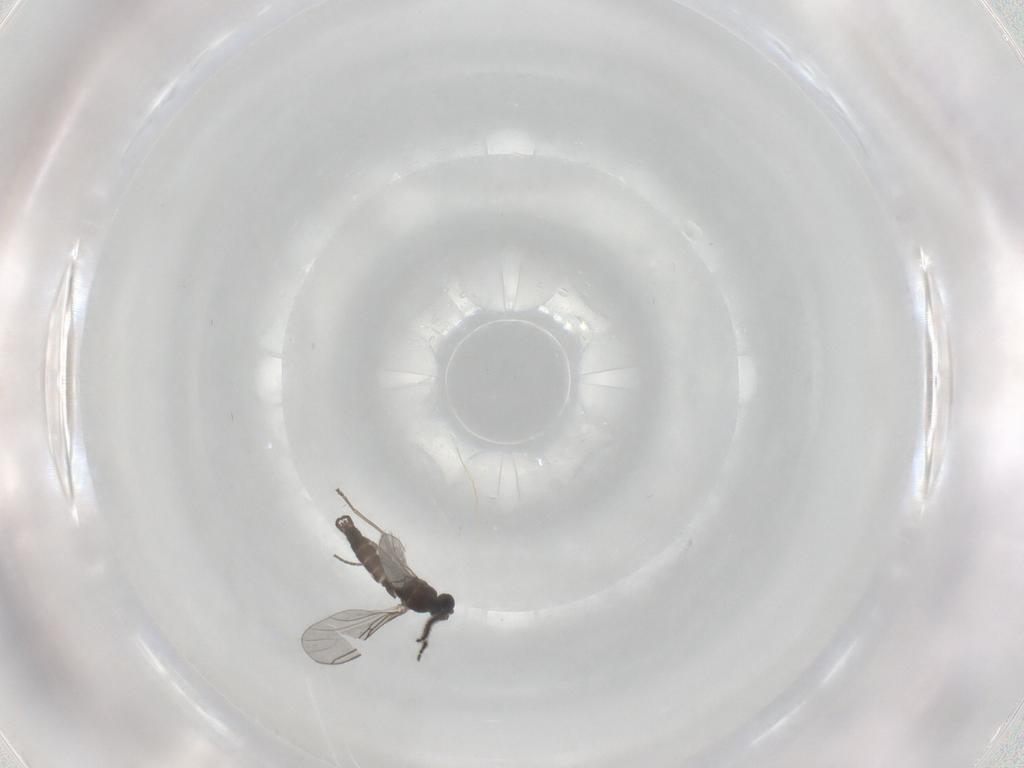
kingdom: Animalia
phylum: Arthropoda
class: Insecta
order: Diptera
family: Sciaridae
